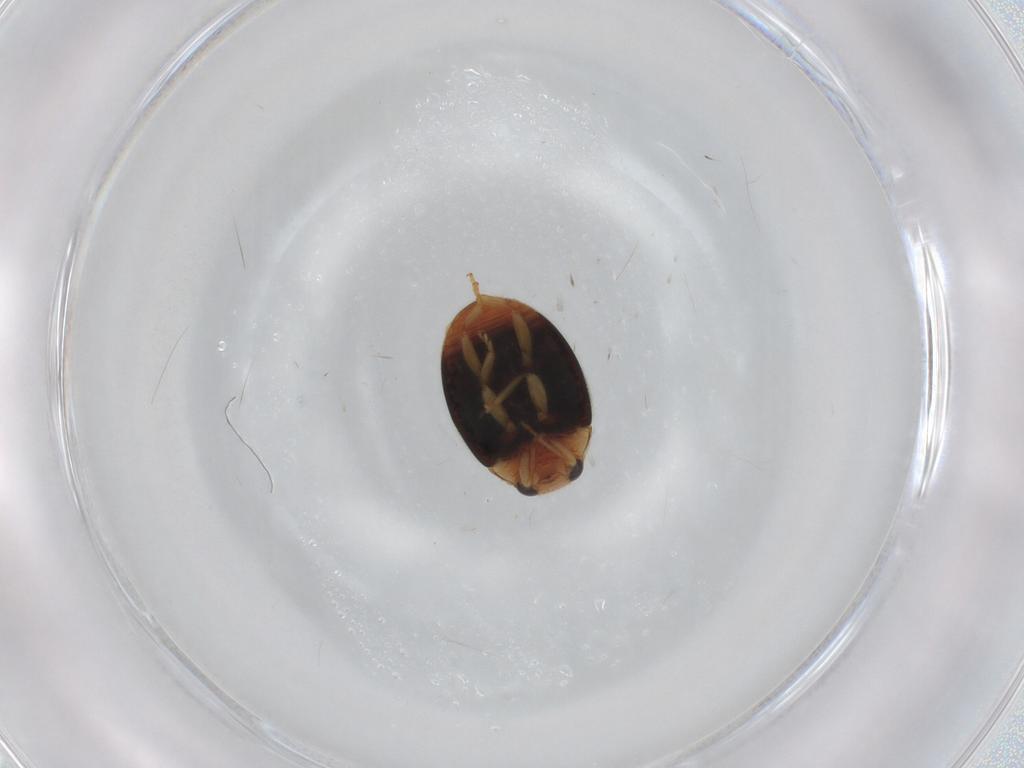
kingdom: Animalia
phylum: Arthropoda
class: Insecta
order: Coleoptera
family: Coccinellidae
